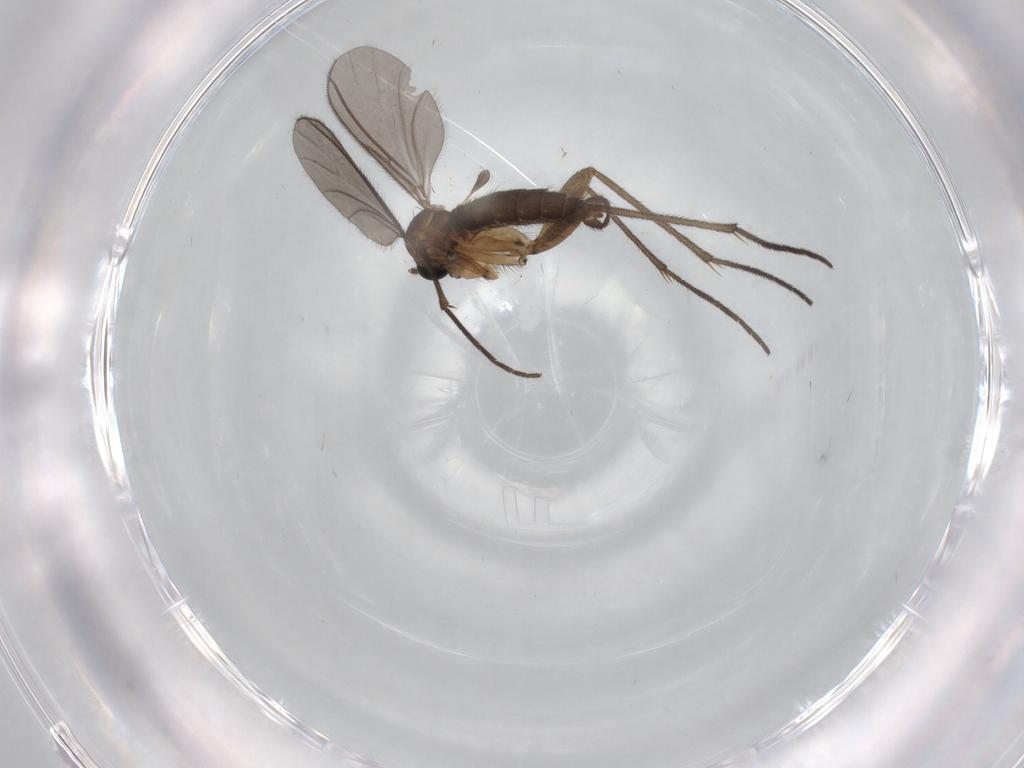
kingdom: Animalia
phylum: Arthropoda
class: Insecta
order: Diptera
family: Sciaridae
